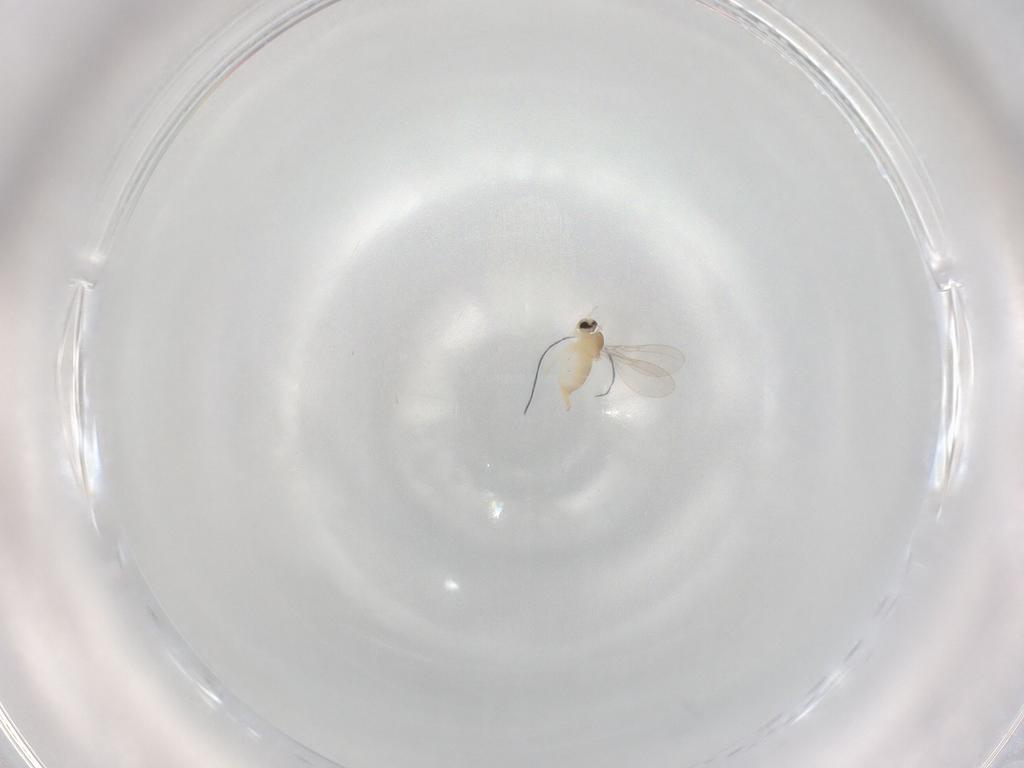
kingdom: Animalia
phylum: Arthropoda
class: Insecta
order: Diptera
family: Cecidomyiidae
